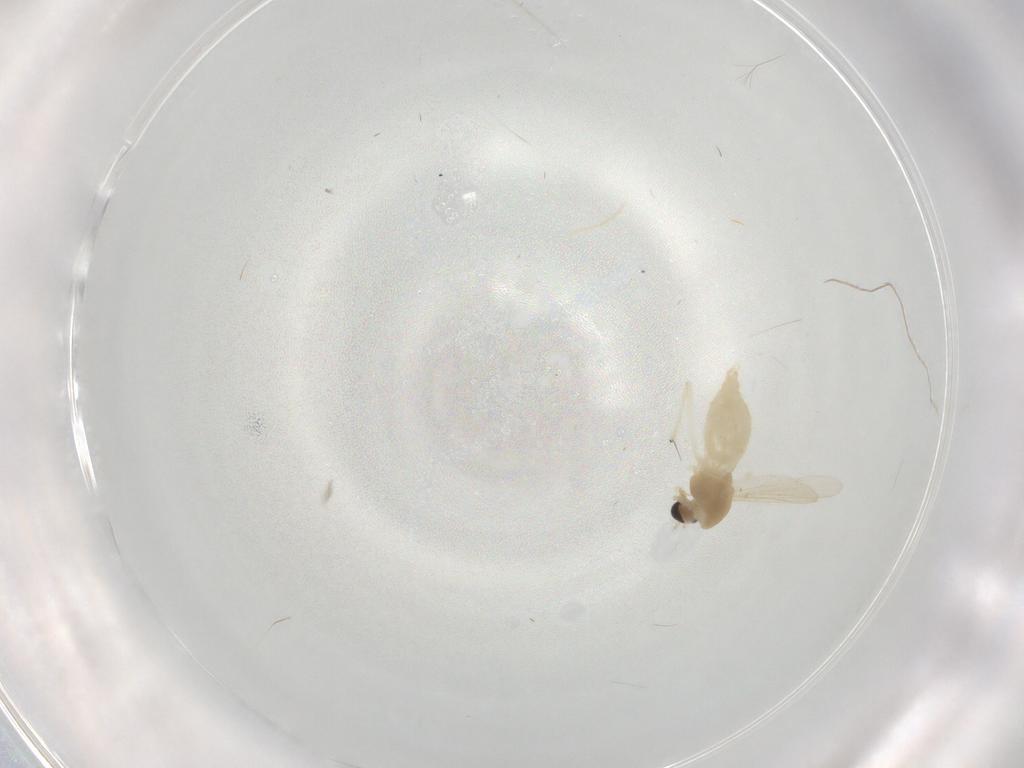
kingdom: Animalia
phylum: Arthropoda
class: Insecta
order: Diptera
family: Chironomidae
